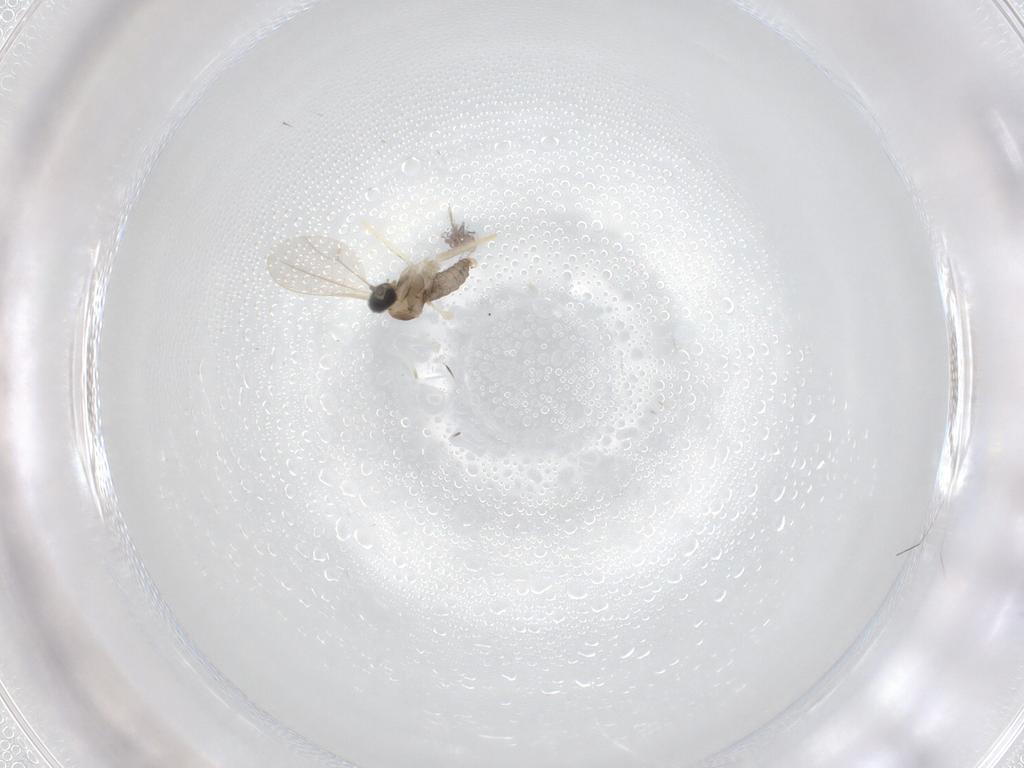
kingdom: Animalia
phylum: Arthropoda
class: Insecta
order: Diptera
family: Cecidomyiidae
